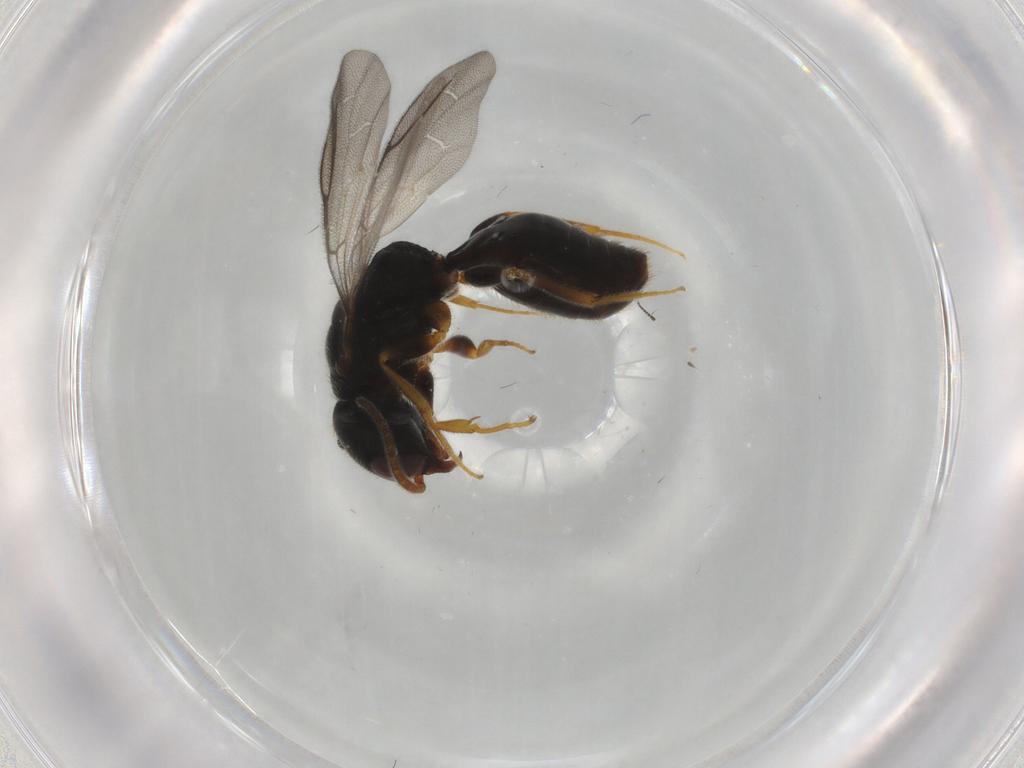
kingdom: Animalia
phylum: Arthropoda
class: Insecta
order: Hymenoptera
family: Bethylidae
